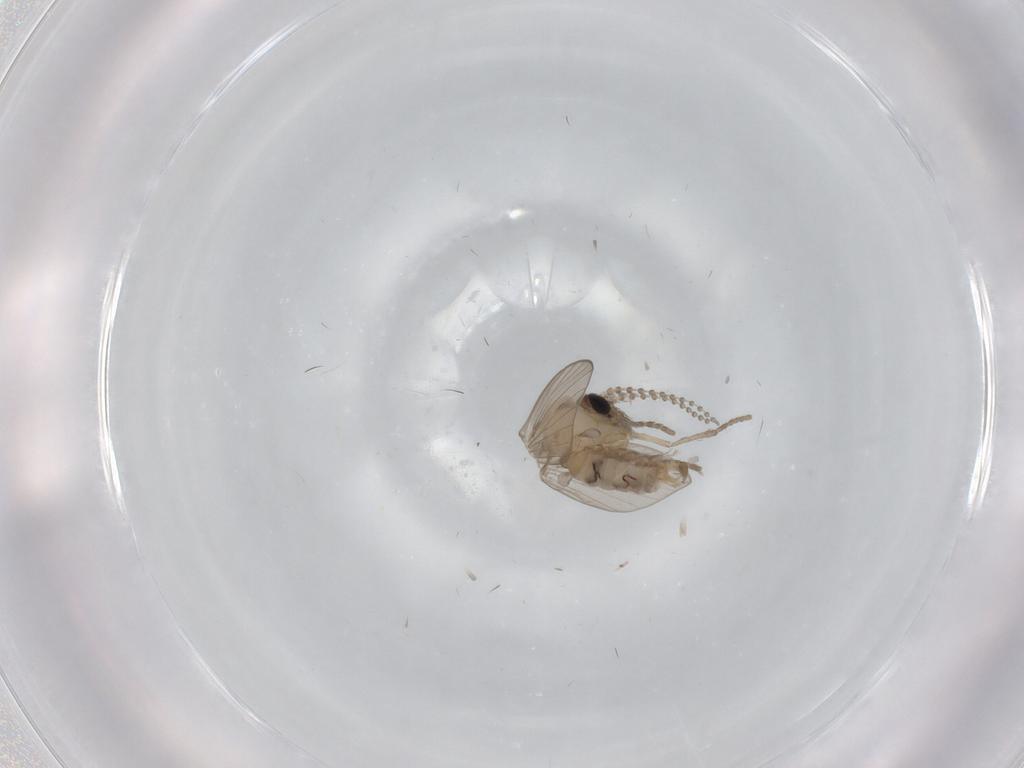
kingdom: Animalia
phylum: Arthropoda
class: Insecta
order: Diptera
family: Psychodidae
